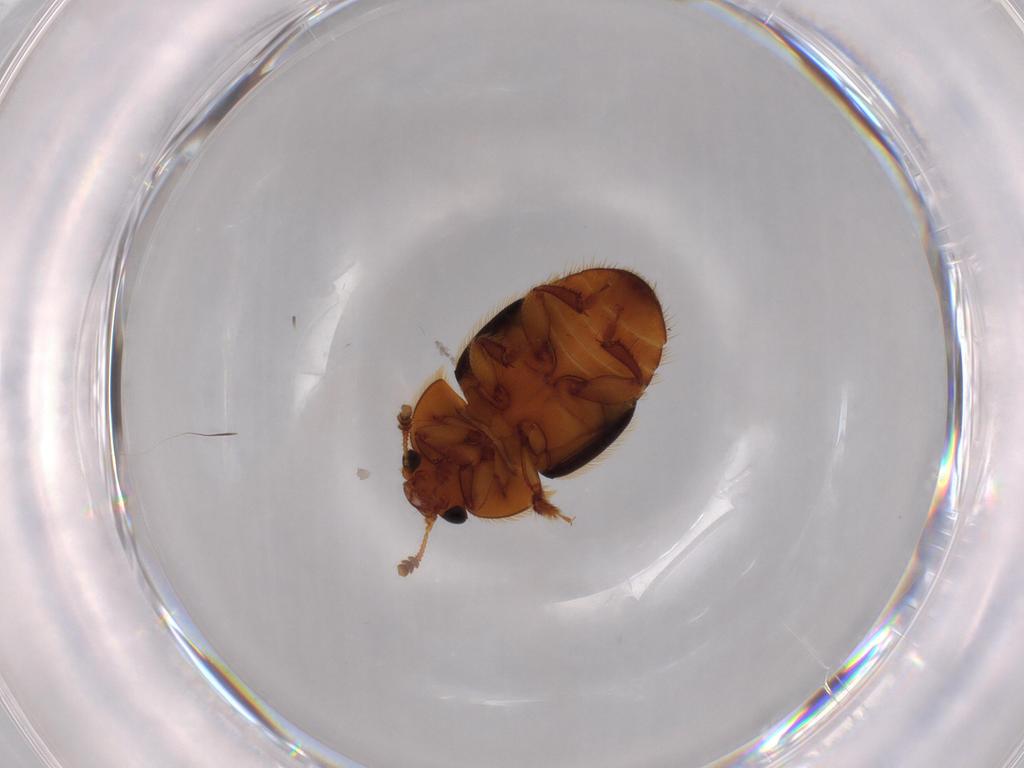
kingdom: Animalia
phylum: Arthropoda
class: Insecta
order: Coleoptera
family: Nitidulidae
